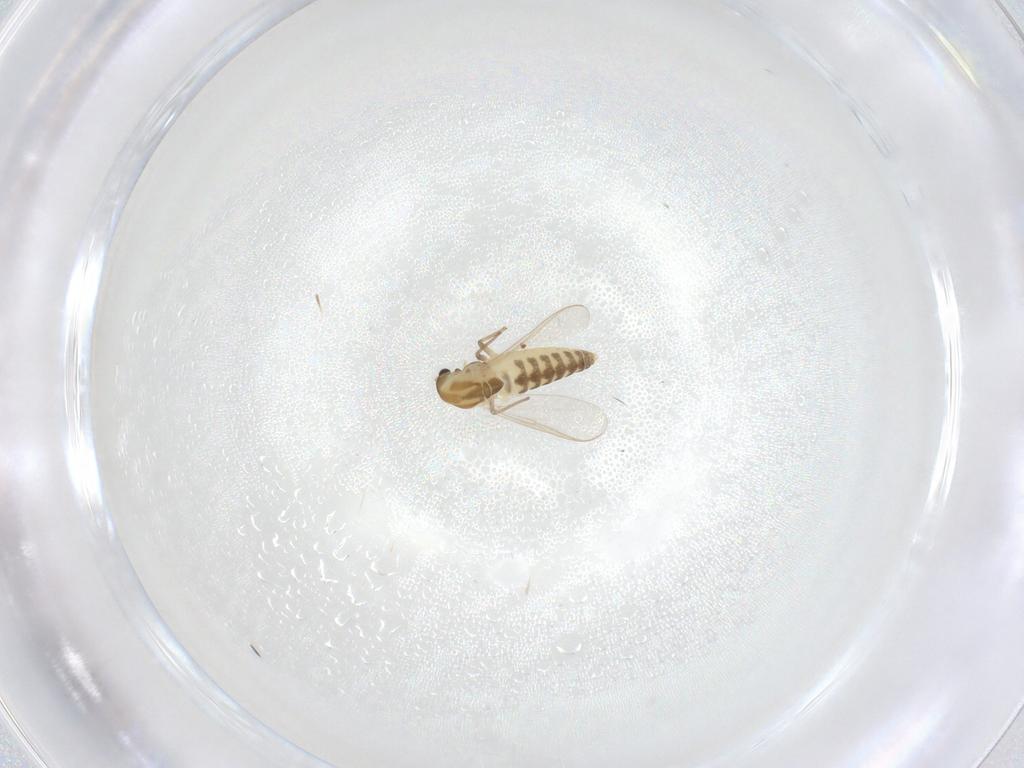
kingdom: Animalia
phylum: Arthropoda
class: Insecta
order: Diptera
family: Chironomidae
